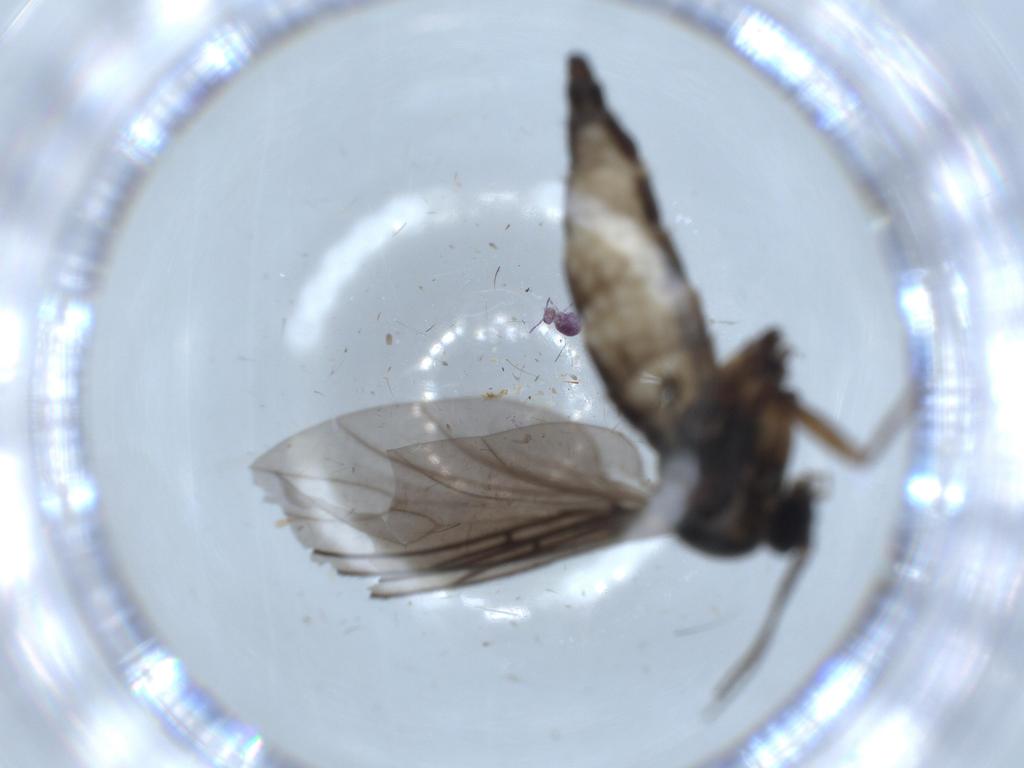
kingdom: Animalia
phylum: Arthropoda
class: Insecta
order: Diptera
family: Sciaridae
